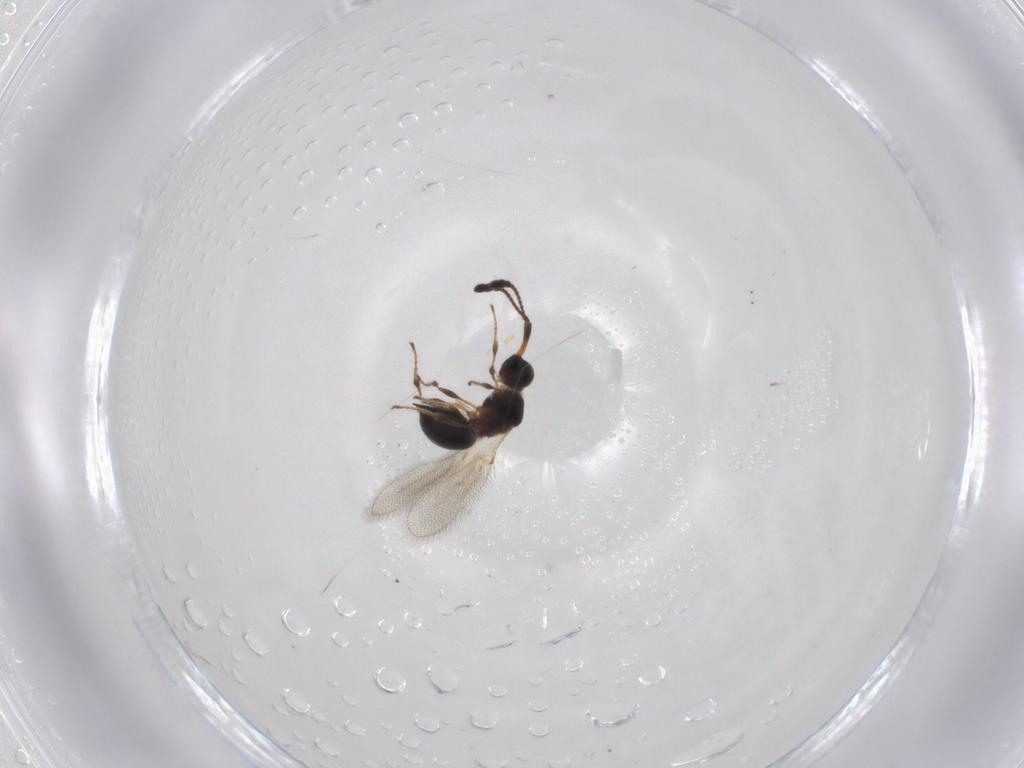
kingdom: Animalia
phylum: Arthropoda
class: Insecta
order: Hymenoptera
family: Diapriidae
